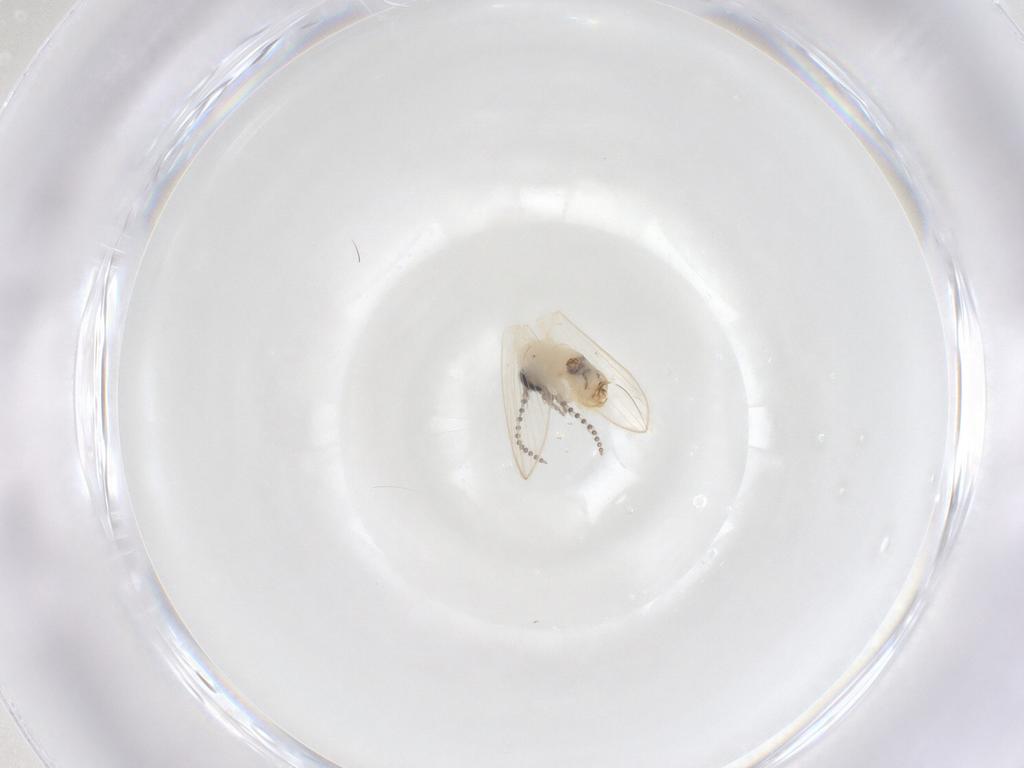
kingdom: Animalia
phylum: Arthropoda
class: Insecta
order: Diptera
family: Psychodidae
